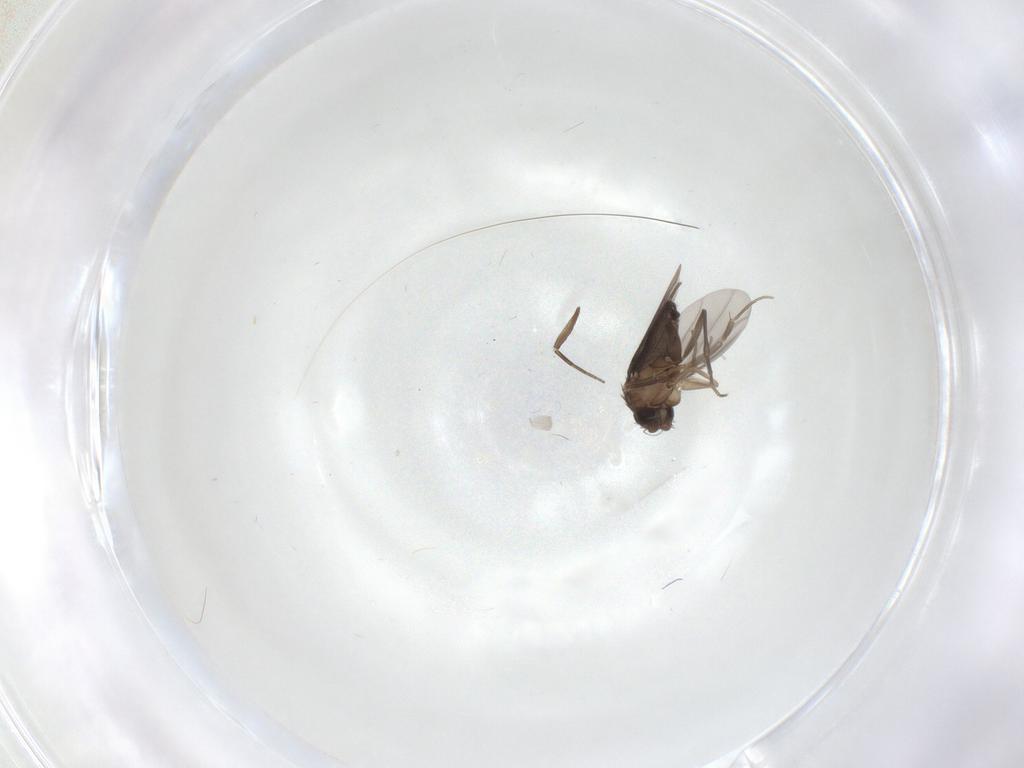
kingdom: Animalia
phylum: Arthropoda
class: Insecta
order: Diptera
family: Phoridae
